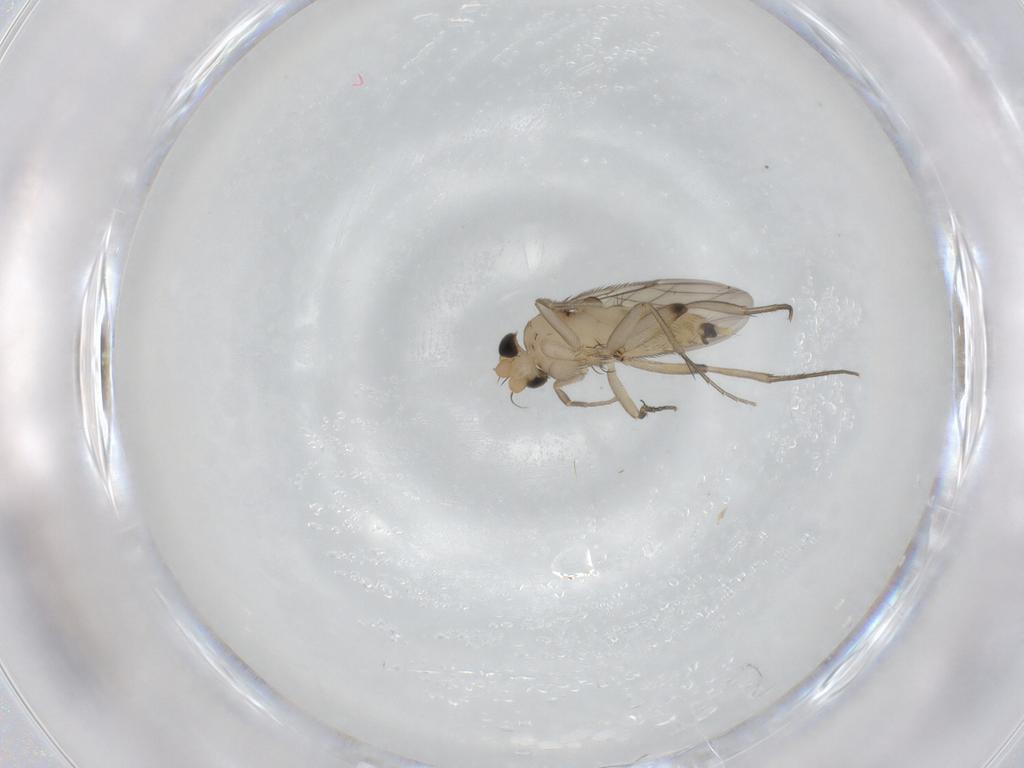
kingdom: Animalia
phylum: Arthropoda
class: Insecta
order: Diptera
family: Phoridae
